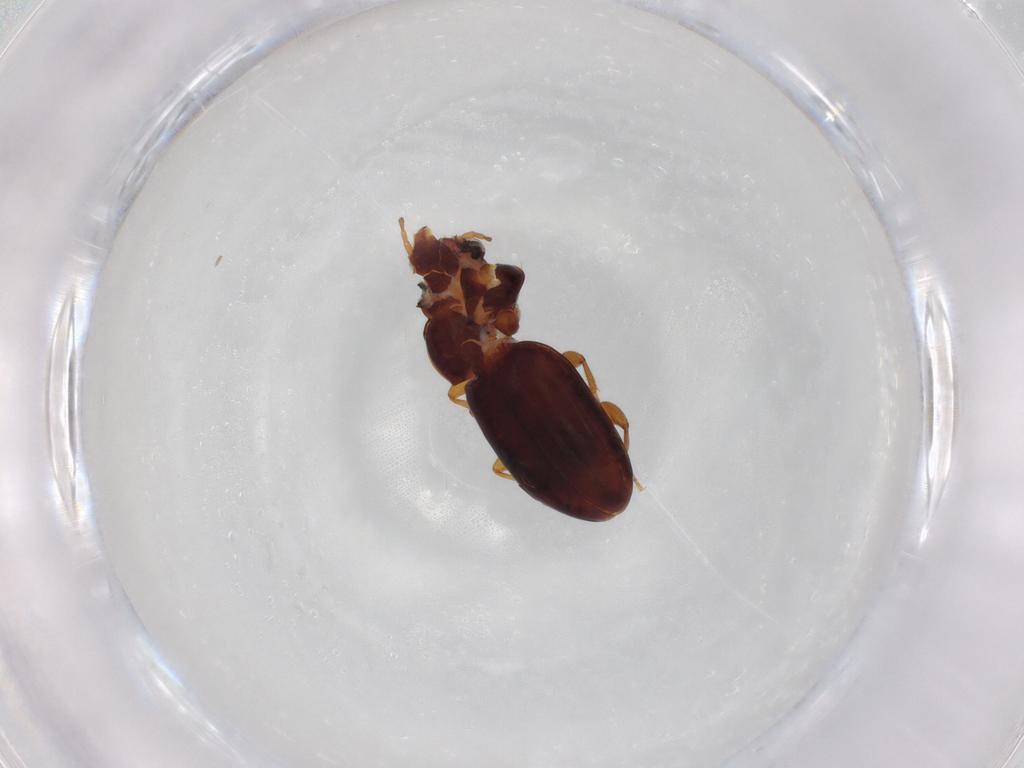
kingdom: Animalia
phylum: Arthropoda
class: Insecta
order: Coleoptera
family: Carabidae
